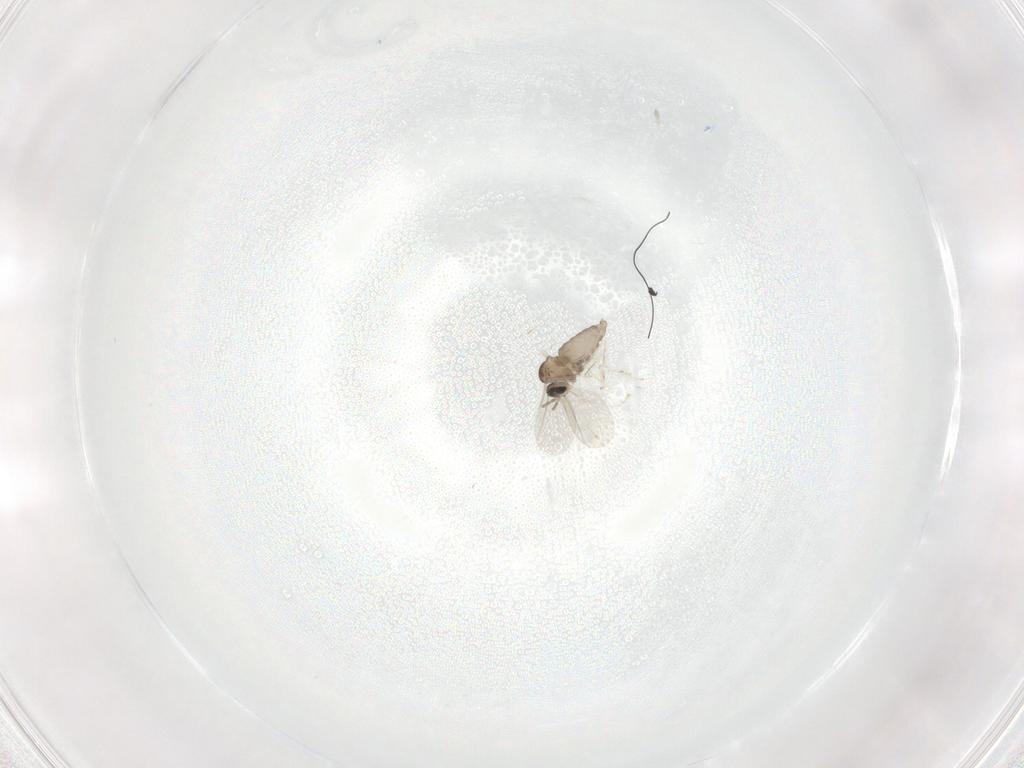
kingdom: Animalia
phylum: Arthropoda
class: Insecta
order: Diptera
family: Cecidomyiidae
